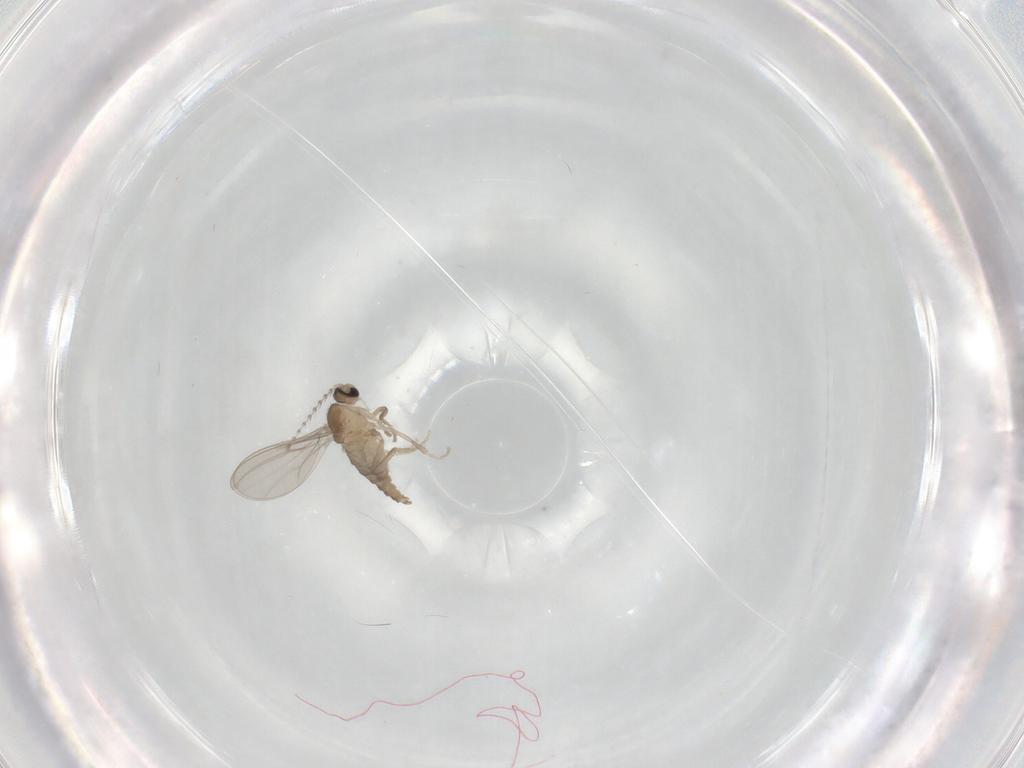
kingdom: Animalia
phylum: Arthropoda
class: Insecta
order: Diptera
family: Cecidomyiidae
